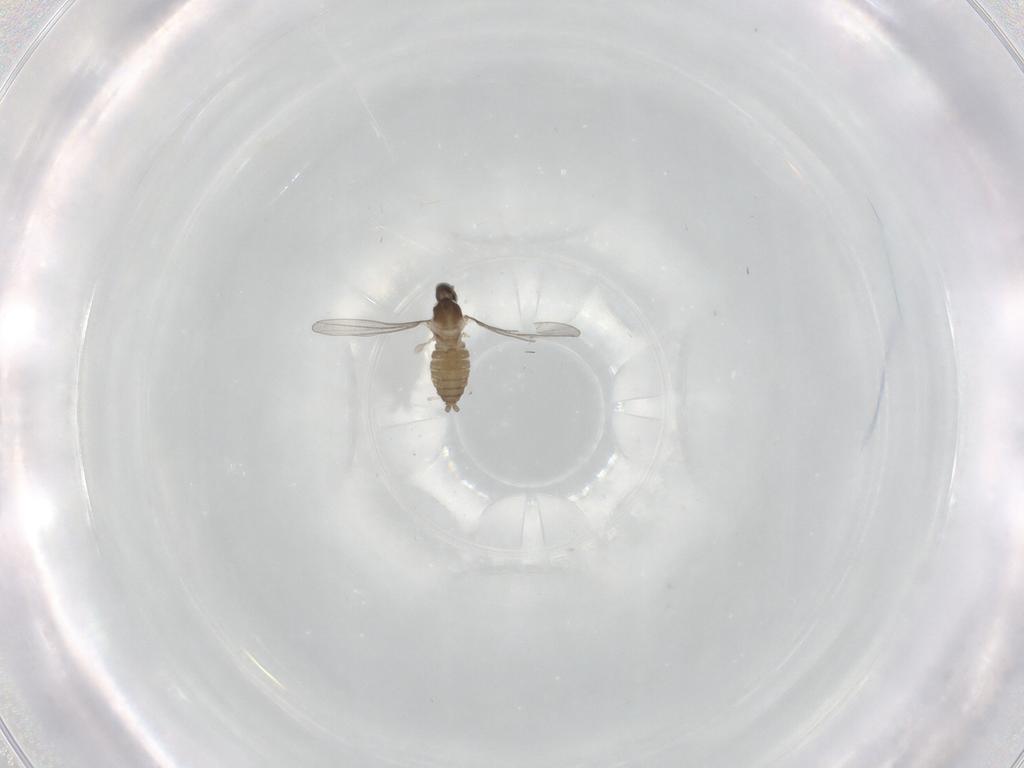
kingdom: Animalia
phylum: Arthropoda
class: Insecta
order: Diptera
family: Cecidomyiidae
